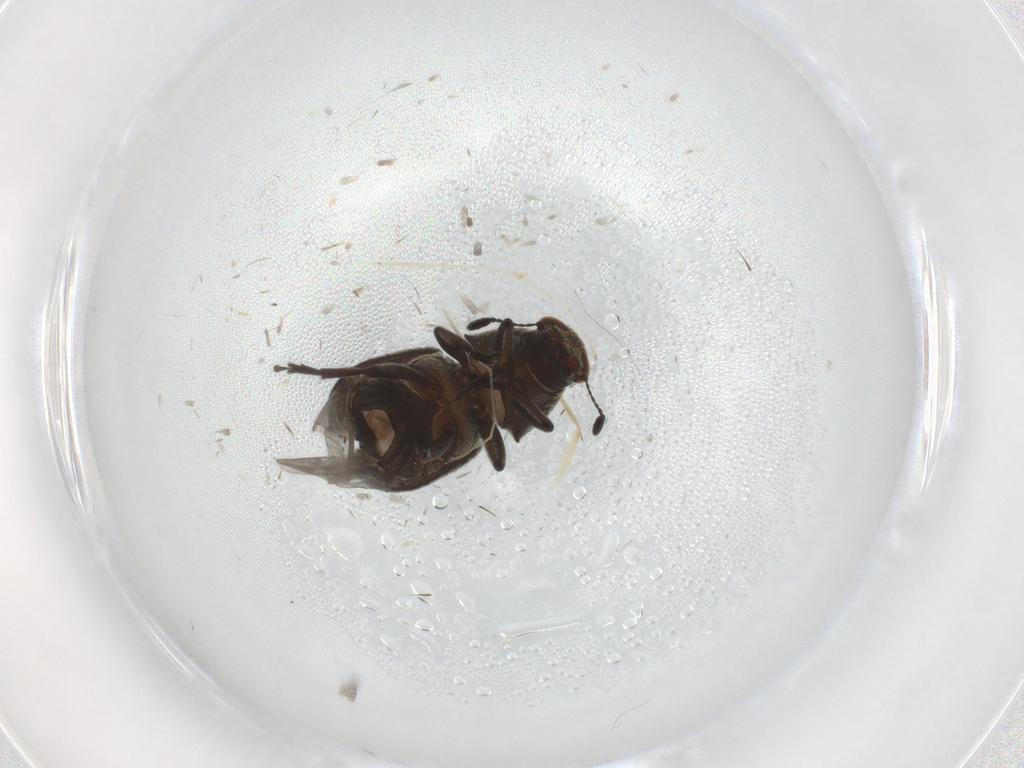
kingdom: Animalia
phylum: Arthropoda
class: Insecta
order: Coleoptera
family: Anthribidae
